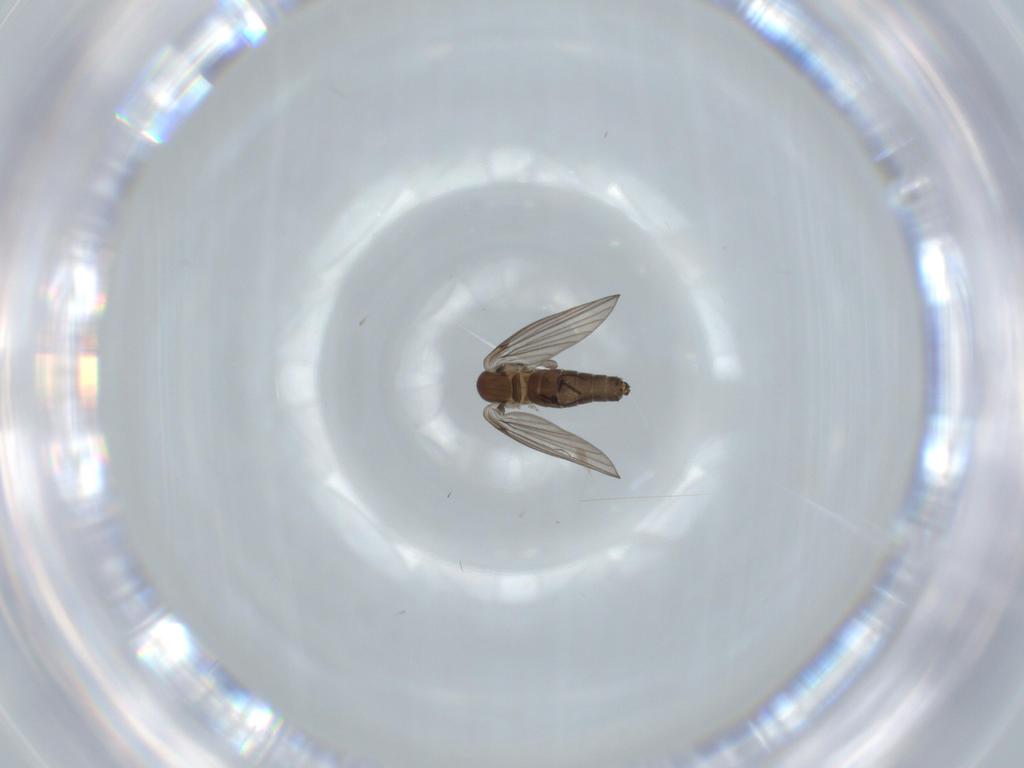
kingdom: Animalia
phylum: Arthropoda
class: Insecta
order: Diptera
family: Psychodidae
